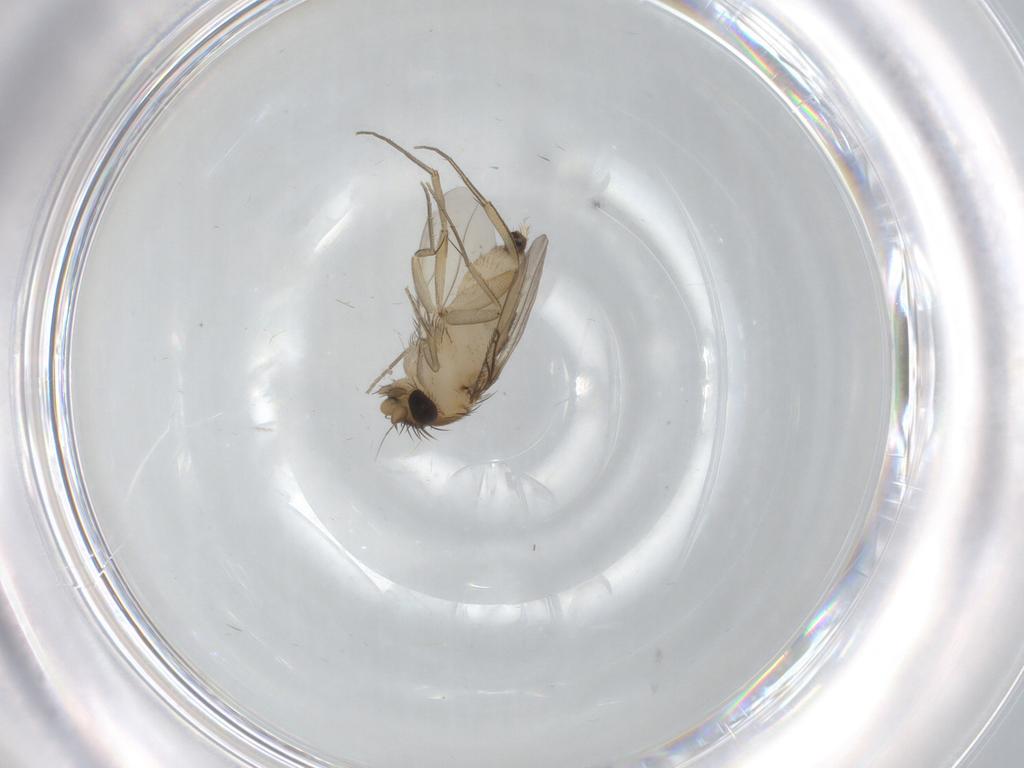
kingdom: Animalia
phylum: Arthropoda
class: Insecta
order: Diptera
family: Phoridae
